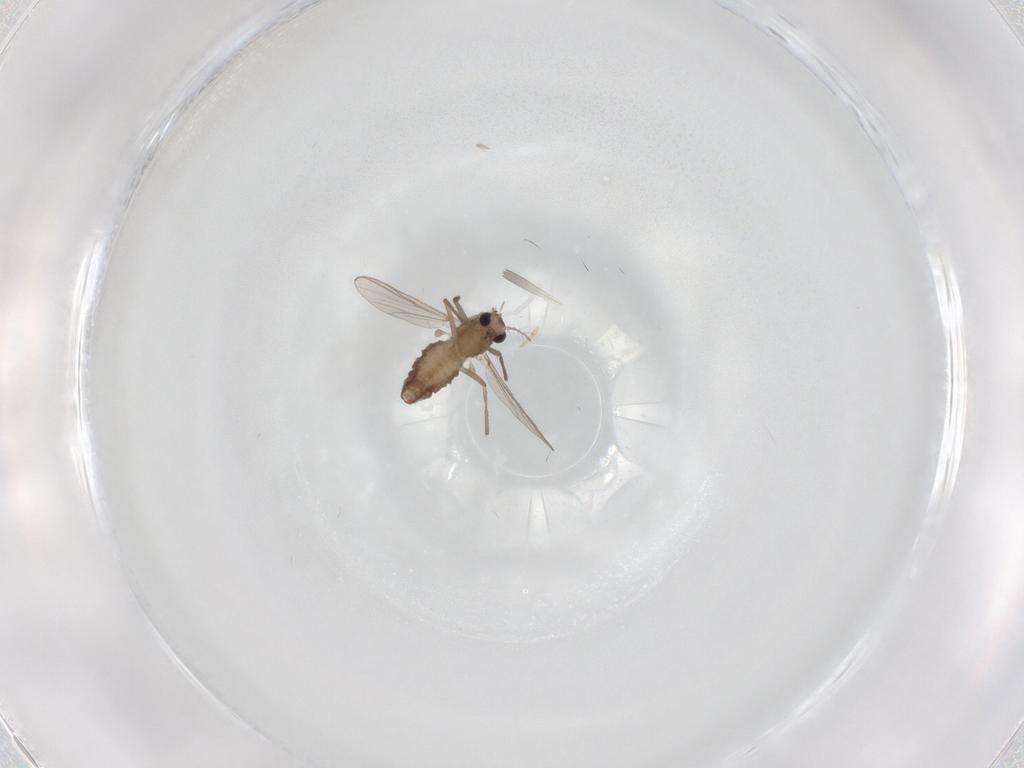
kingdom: Animalia
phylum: Arthropoda
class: Insecta
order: Diptera
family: Chironomidae
